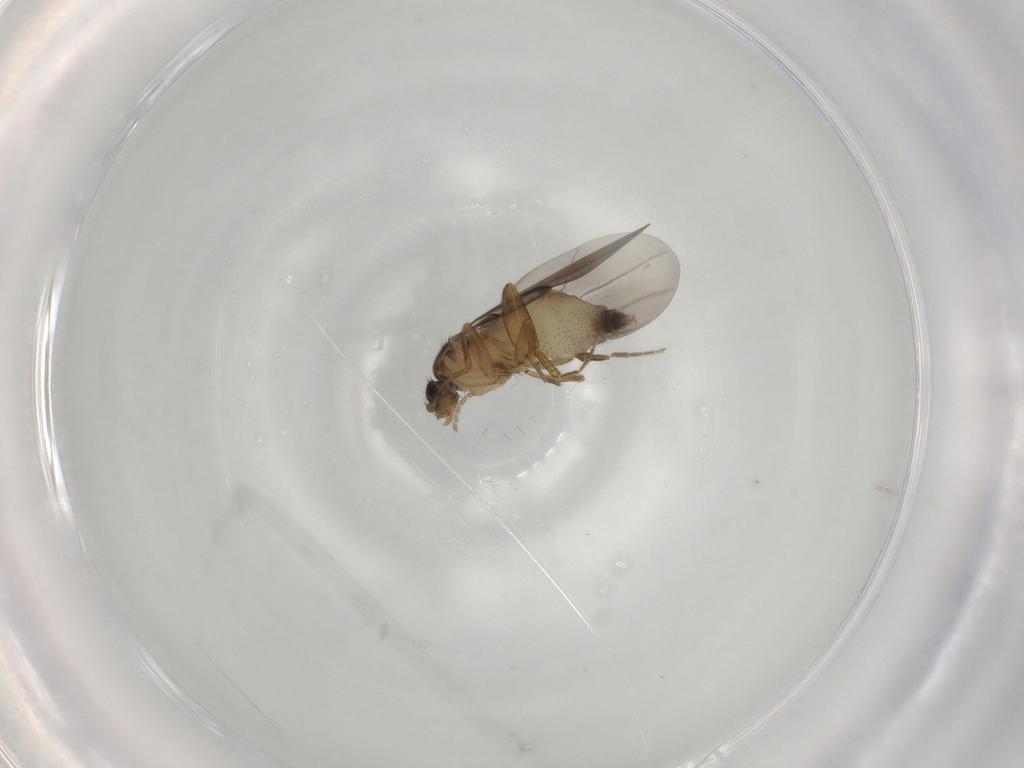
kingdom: Animalia
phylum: Arthropoda
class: Insecta
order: Diptera
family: Phoridae
